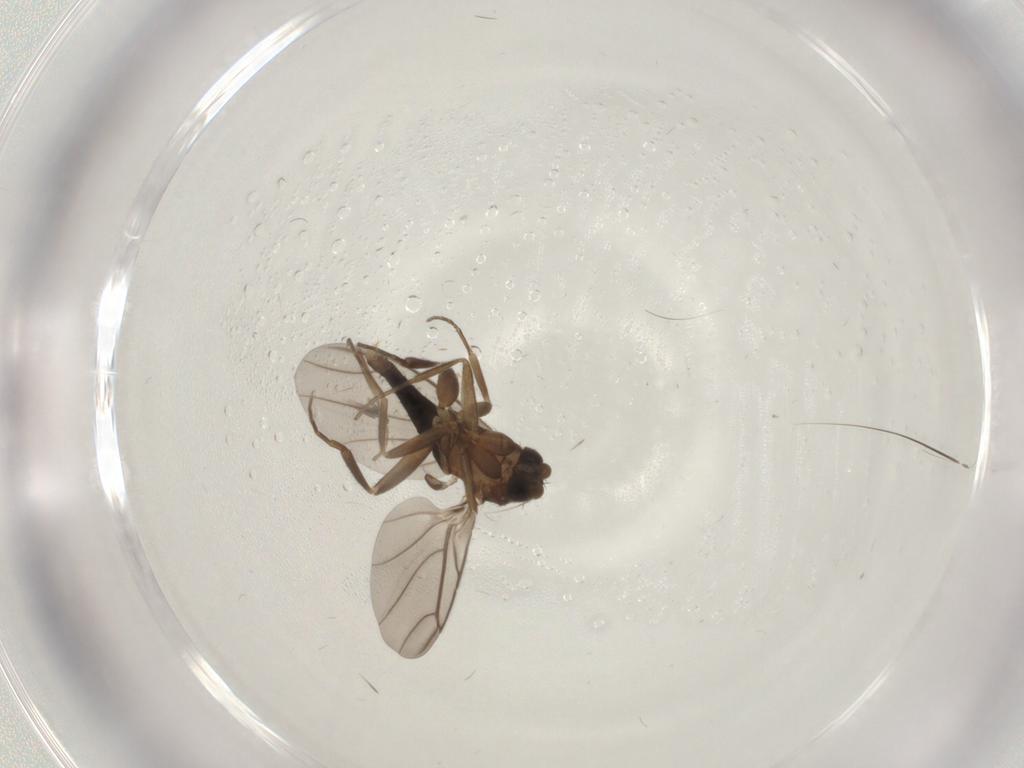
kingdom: Animalia
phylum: Arthropoda
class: Insecta
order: Diptera
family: Phoridae
